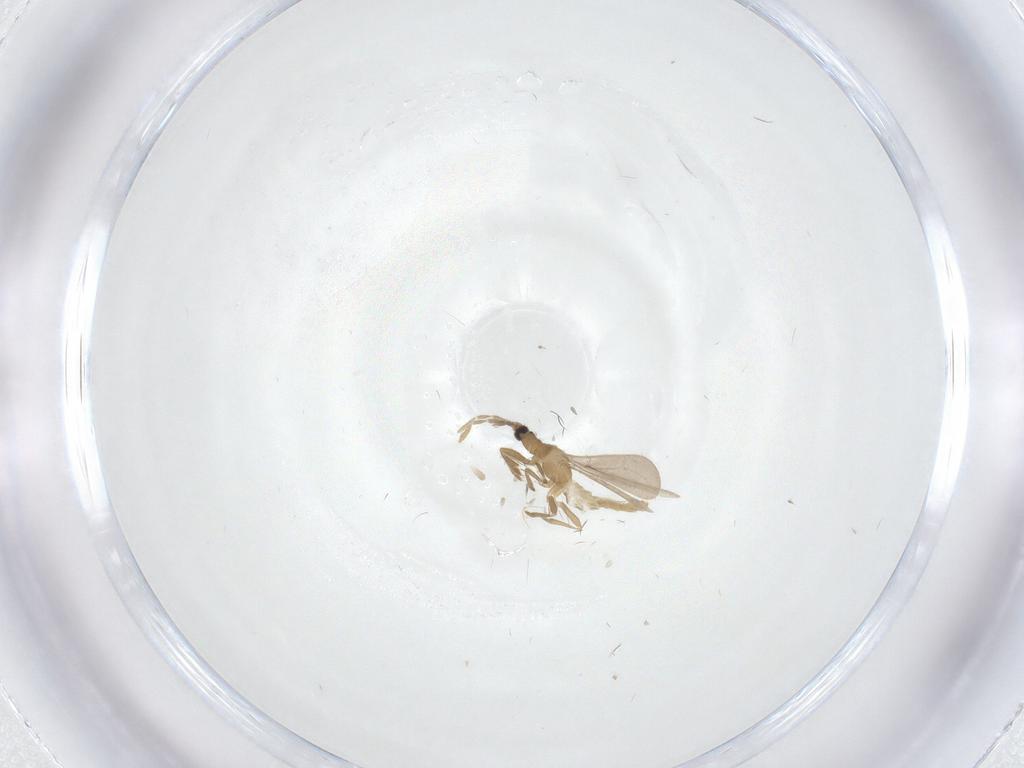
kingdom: Animalia
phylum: Arthropoda
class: Insecta
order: Hemiptera
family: Enicocephalidae
